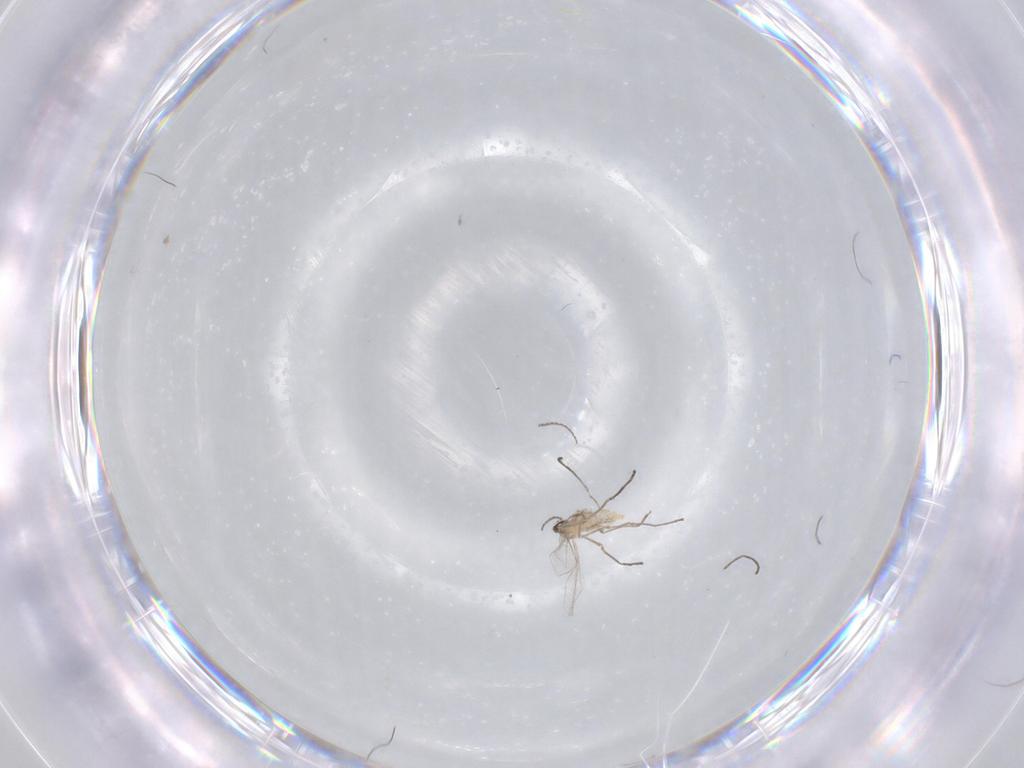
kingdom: Animalia
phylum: Arthropoda
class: Insecta
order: Diptera
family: Cecidomyiidae
